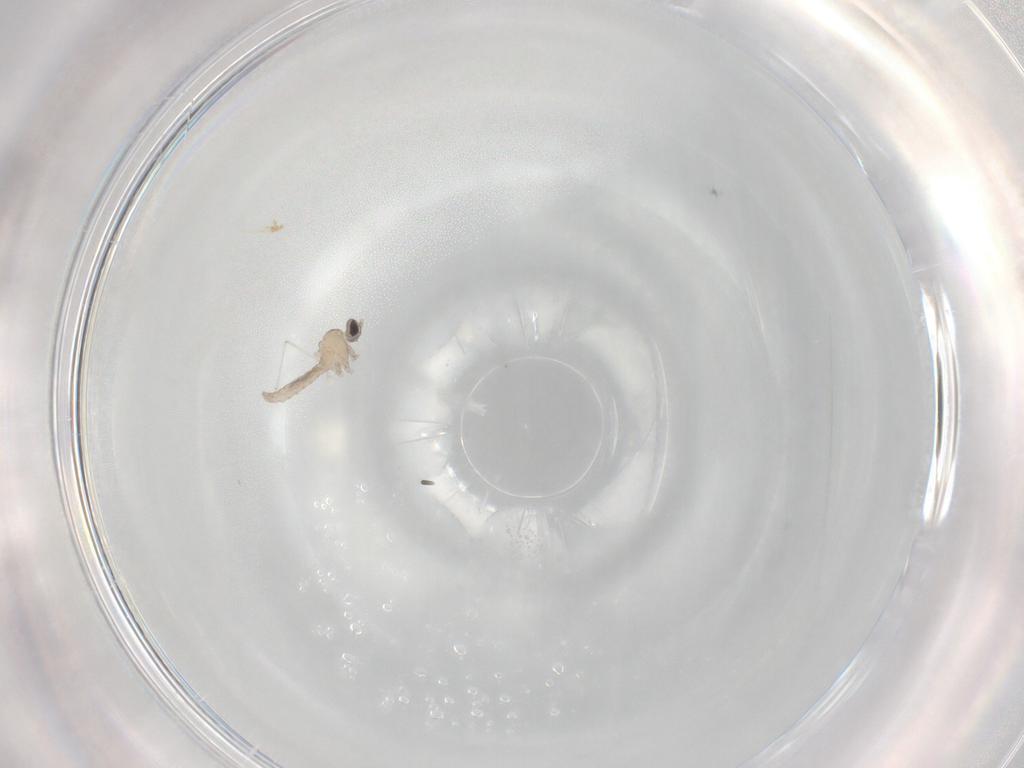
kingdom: Animalia
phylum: Arthropoda
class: Insecta
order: Diptera
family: Cecidomyiidae
